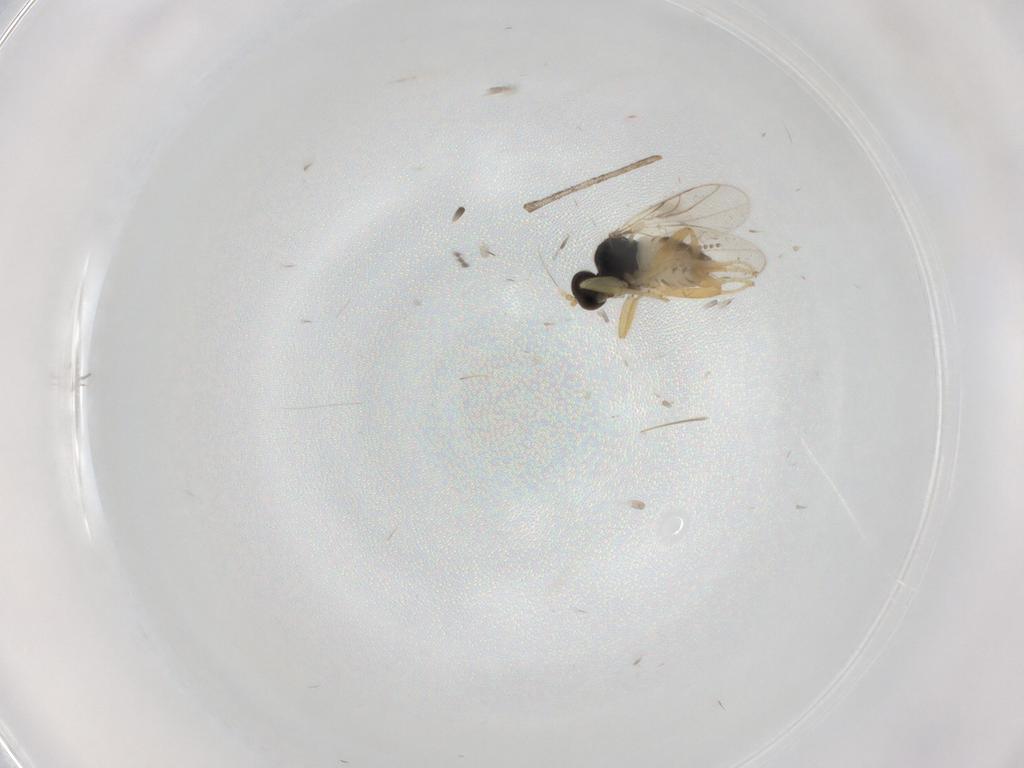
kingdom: Animalia
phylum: Arthropoda
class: Insecta
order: Diptera
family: Hybotidae
